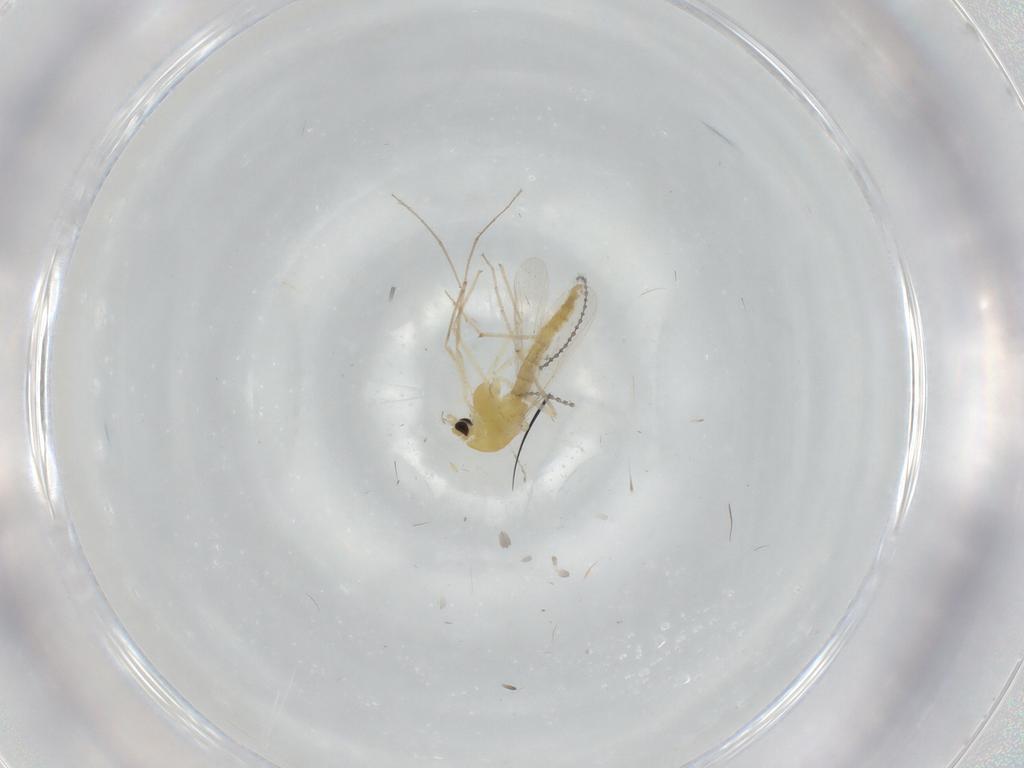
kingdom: Animalia
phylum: Arthropoda
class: Insecta
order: Diptera
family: Chironomidae
